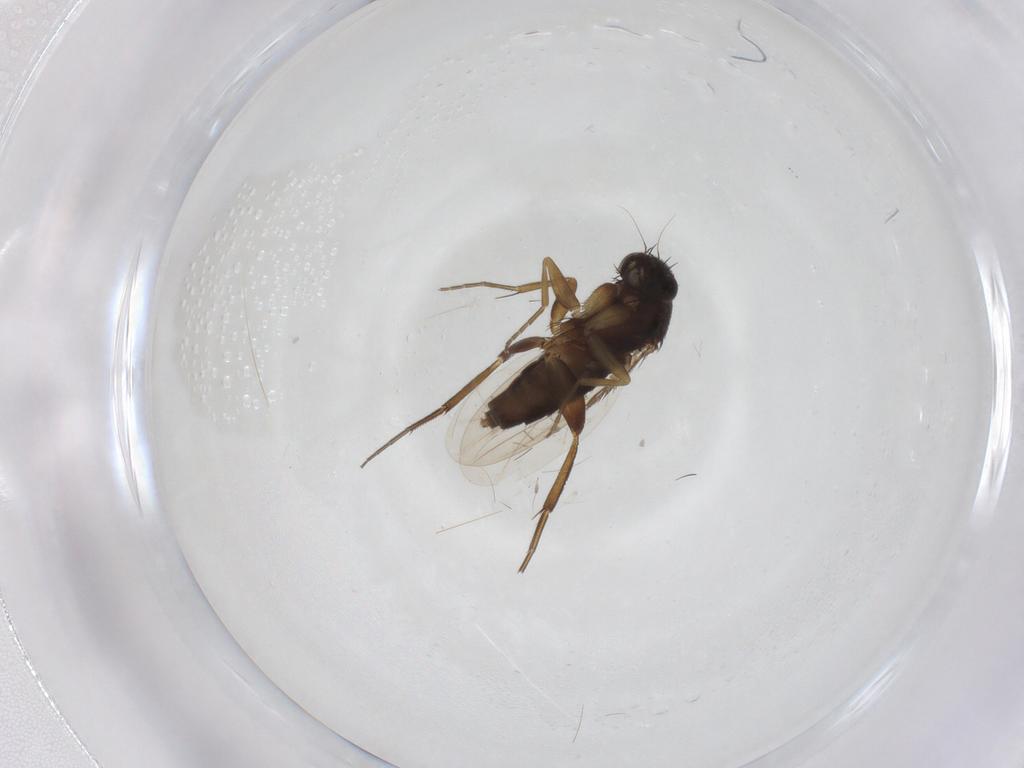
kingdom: Animalia
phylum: Arthropoda
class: Insecta
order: Diptera
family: Phoridae
